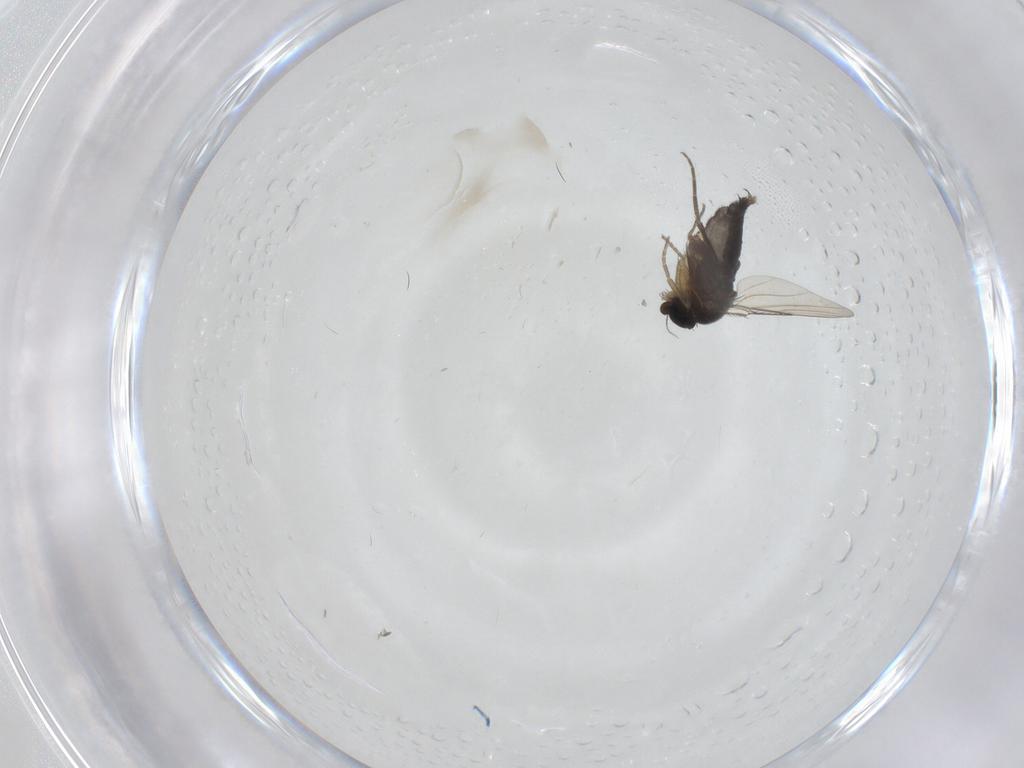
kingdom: Animalia
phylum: Arthropoda
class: Insecta
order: Diptera
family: Phoridae
